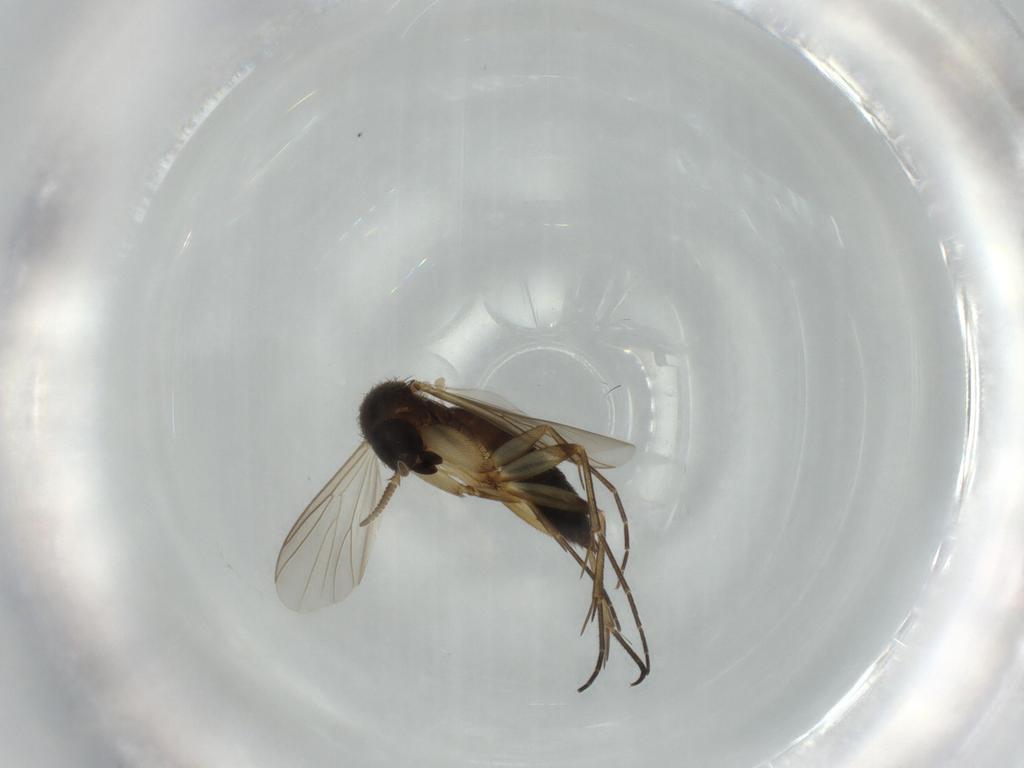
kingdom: Animalia
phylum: Arthropoda
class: Insecta
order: Diptera
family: Mycetophilidae
